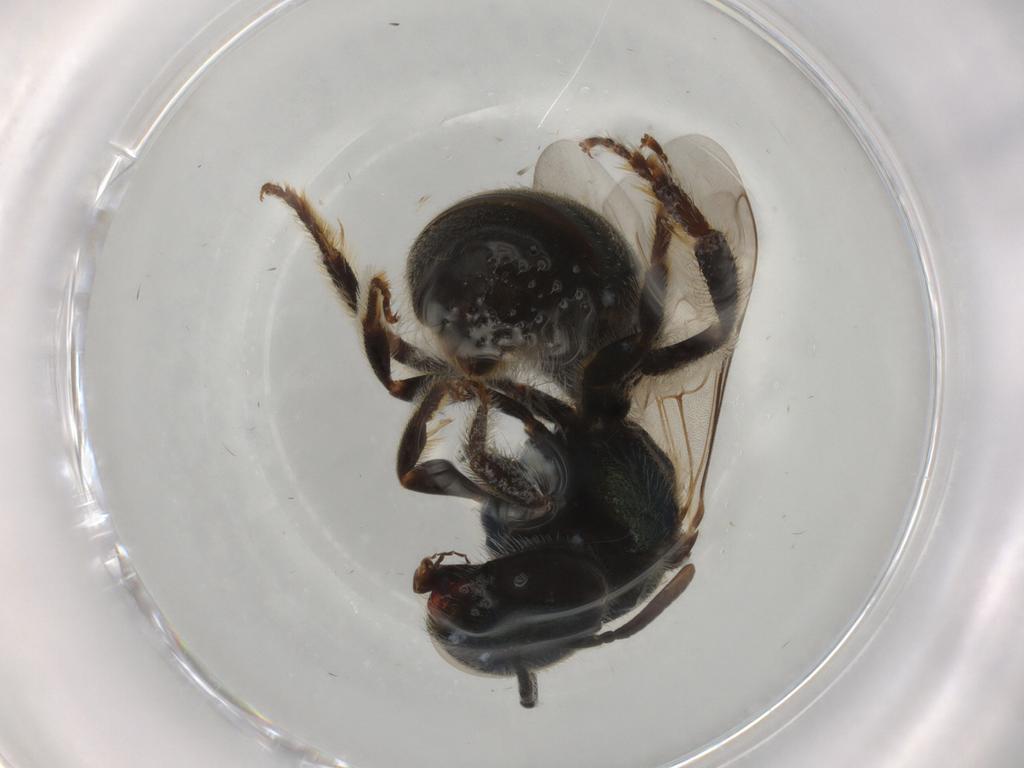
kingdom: Animalia
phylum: Arthropoda
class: Insecta
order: Hymenoptera
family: Halictidae
